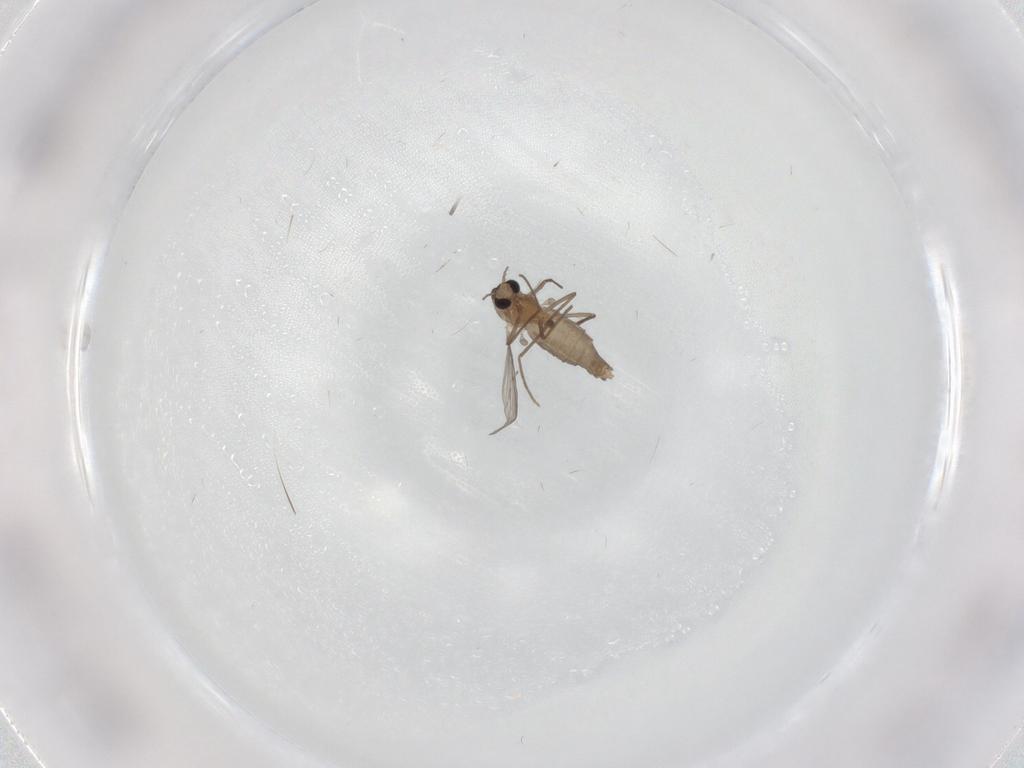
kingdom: Animalia
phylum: Arthropoda
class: Insecta
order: Diptera
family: Chironomidae
